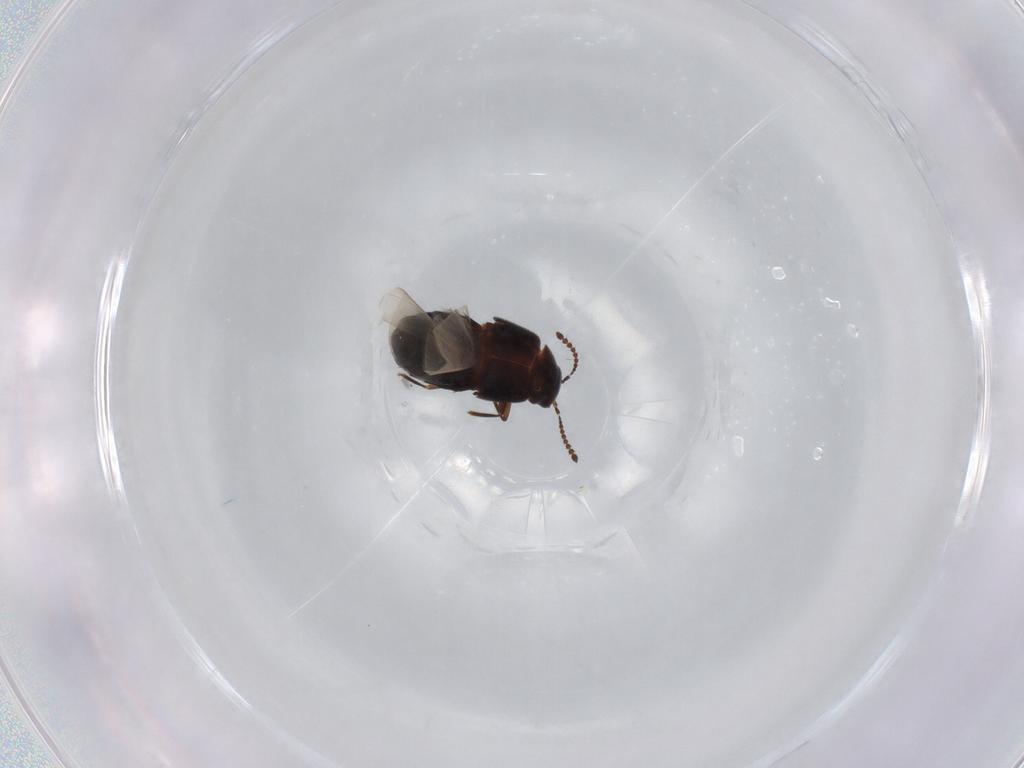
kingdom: Animalia
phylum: Arthropoda
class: Insecta
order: Coleoptera
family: Staphylinidae
